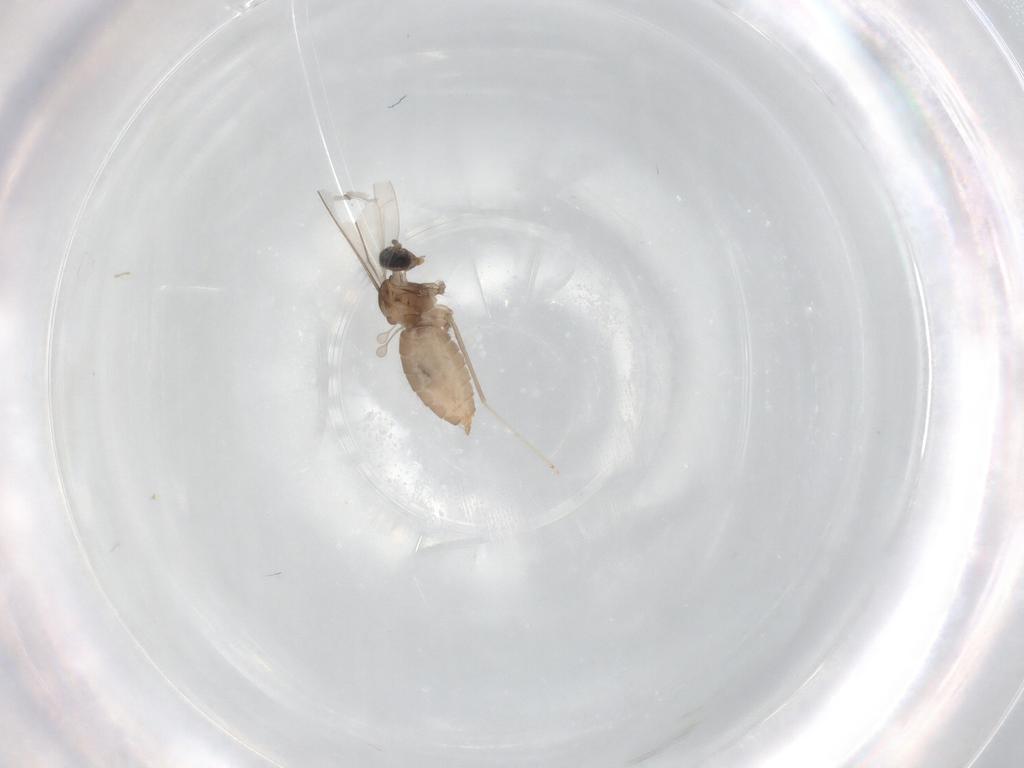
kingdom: Animalia
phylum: Arthropoda
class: Insecta
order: Diptera
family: Cecidomyiidae
